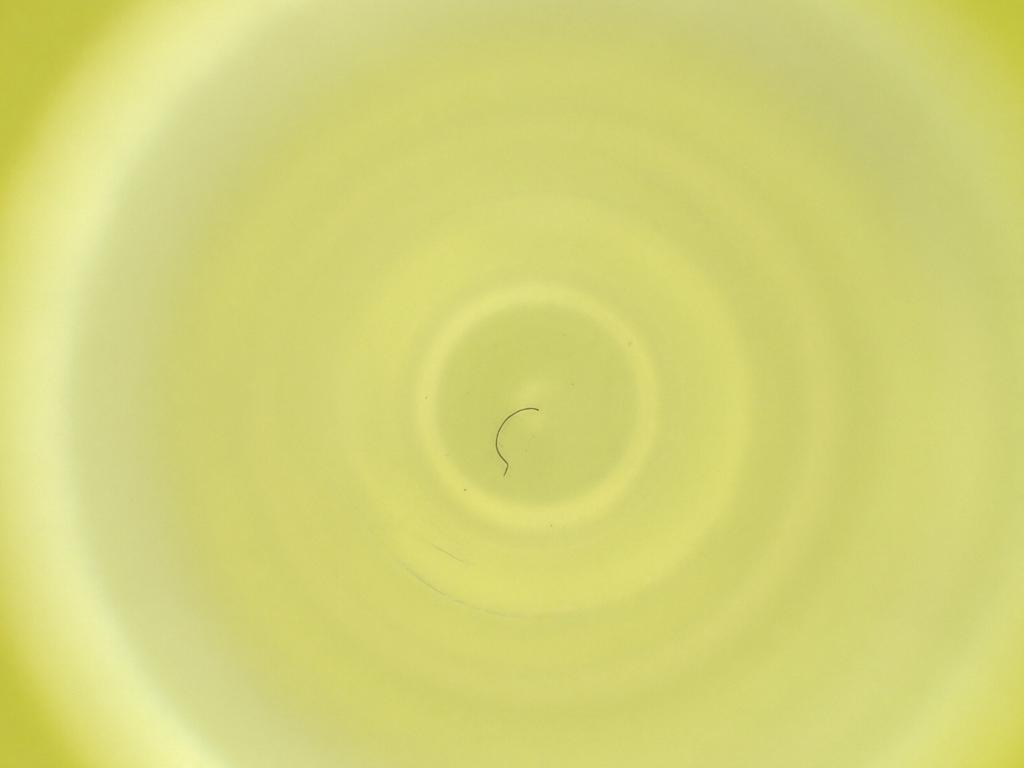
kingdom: Animalia
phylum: Arthropoda
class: Insecta
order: Diptera
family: Cecidomyiidae
